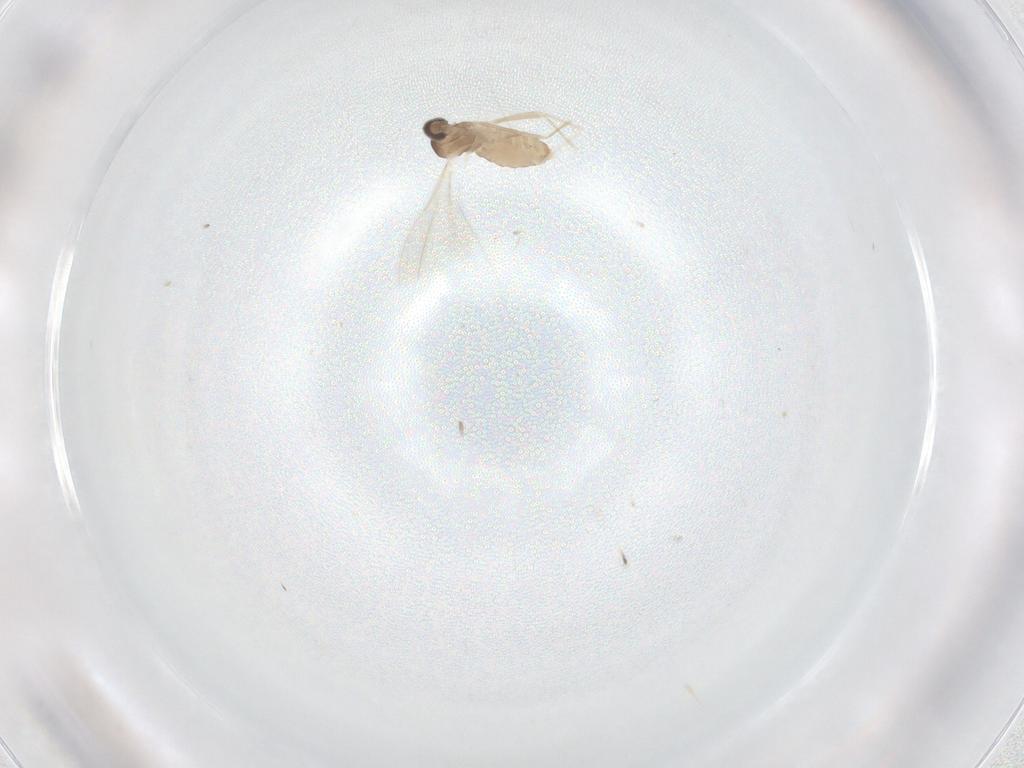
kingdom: Animalia
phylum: Arthropoda
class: Insecta
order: Diptera
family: Cecidomyiidae
